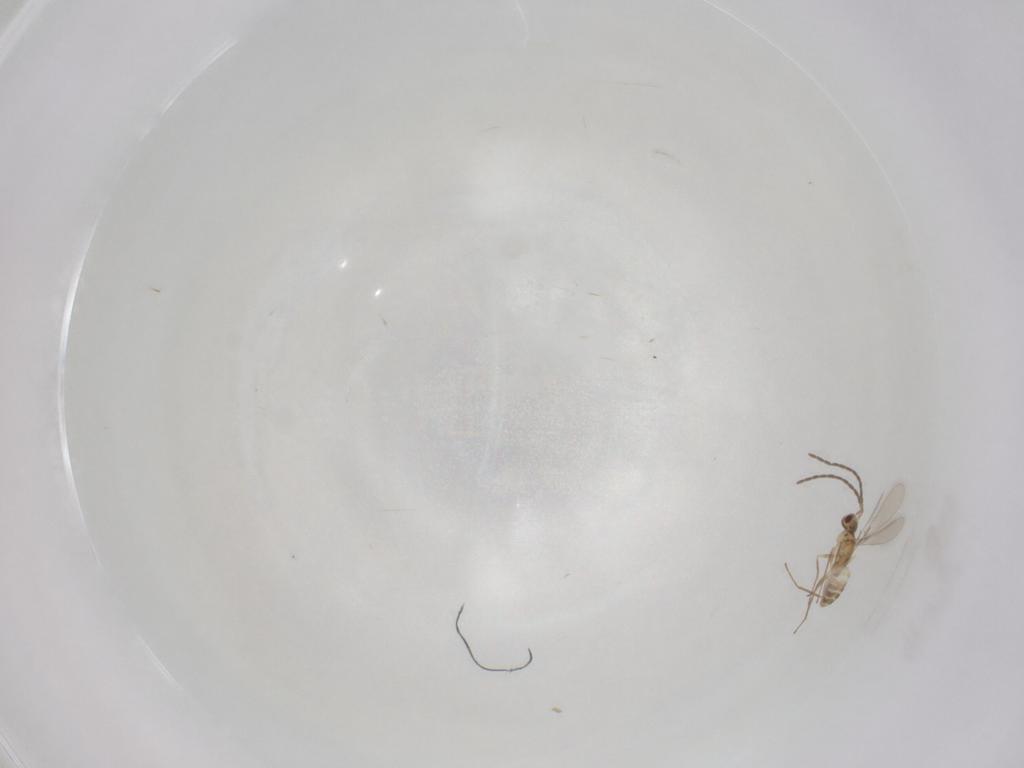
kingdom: Animalia
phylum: Arthropoda
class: Insecta
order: Hymenoptera
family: Mymaridae
